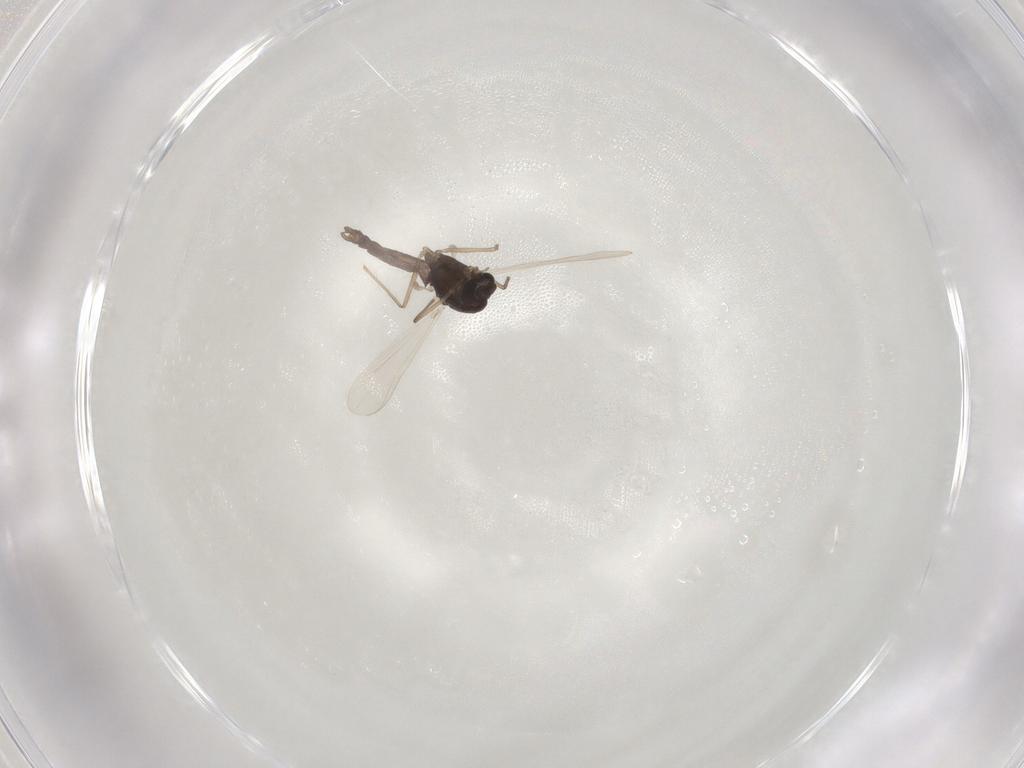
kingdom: Animalia
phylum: Arthropoda
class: Insecta
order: Diptera
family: Chironomidae
